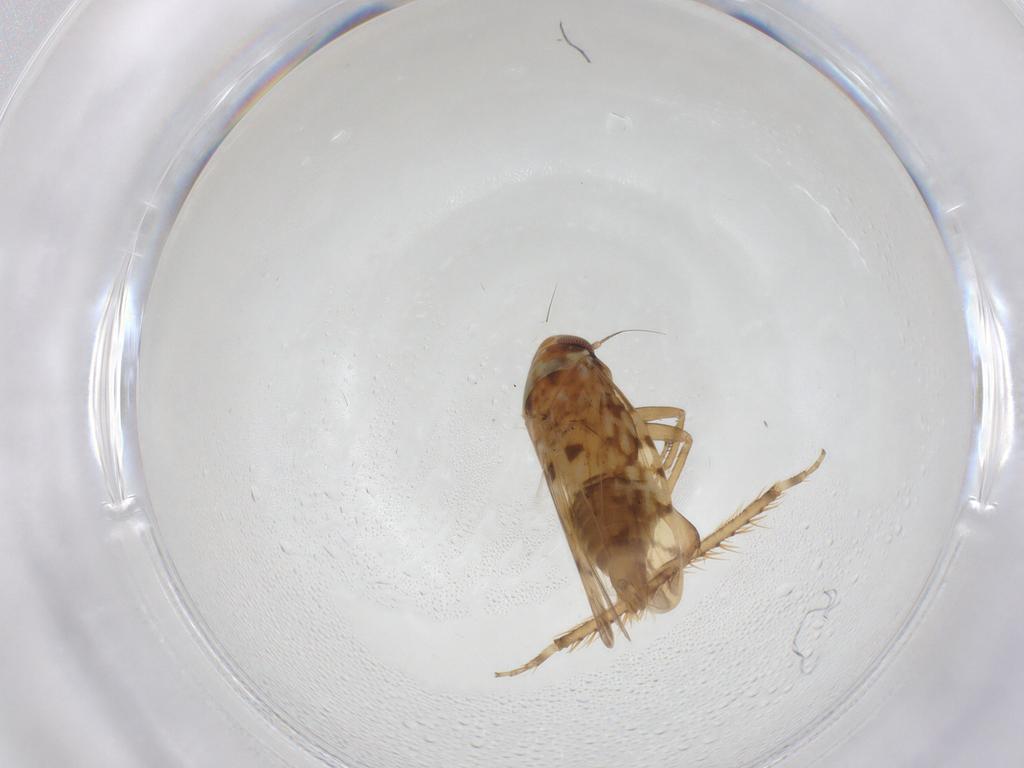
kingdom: Animalia
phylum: Arthropoda
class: Insecta
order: Hemiptera
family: Cicadellidae
